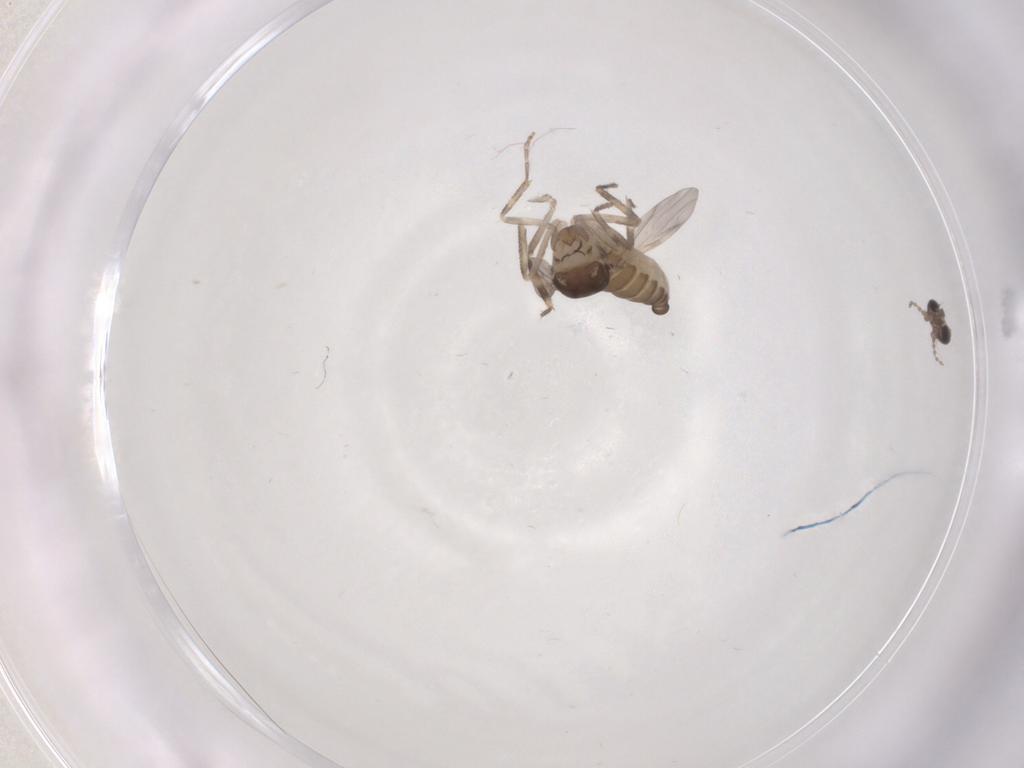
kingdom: Animalia
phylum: Arthropoda
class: Insecta
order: Diptera
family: Ceratopogonidae
